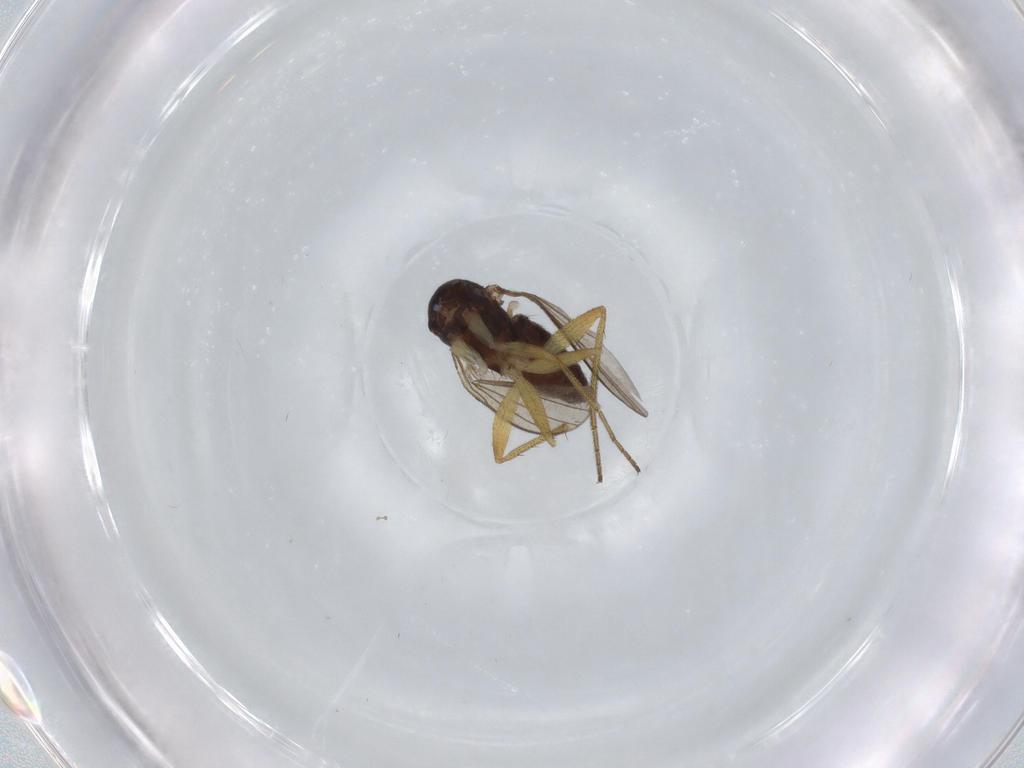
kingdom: Animalia
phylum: Arthropoda
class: Insecta
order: Diptera
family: Dolichopodidae
